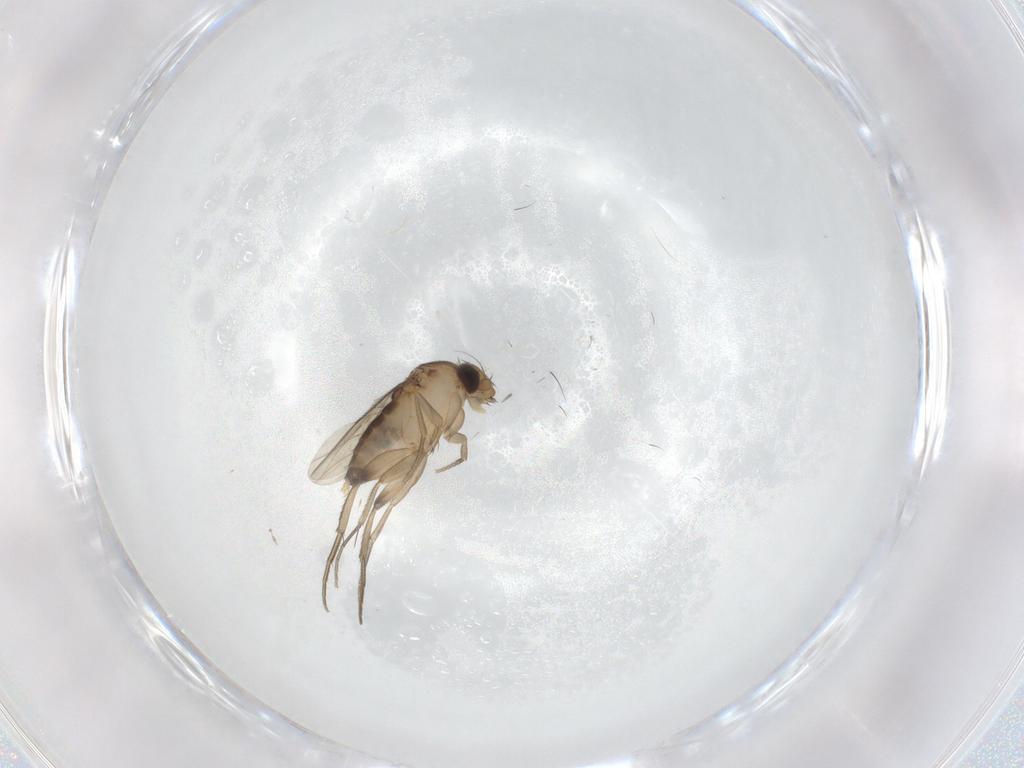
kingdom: Animalia
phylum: Arthropoda
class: Insecta
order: Diptera
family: Chironomidae
